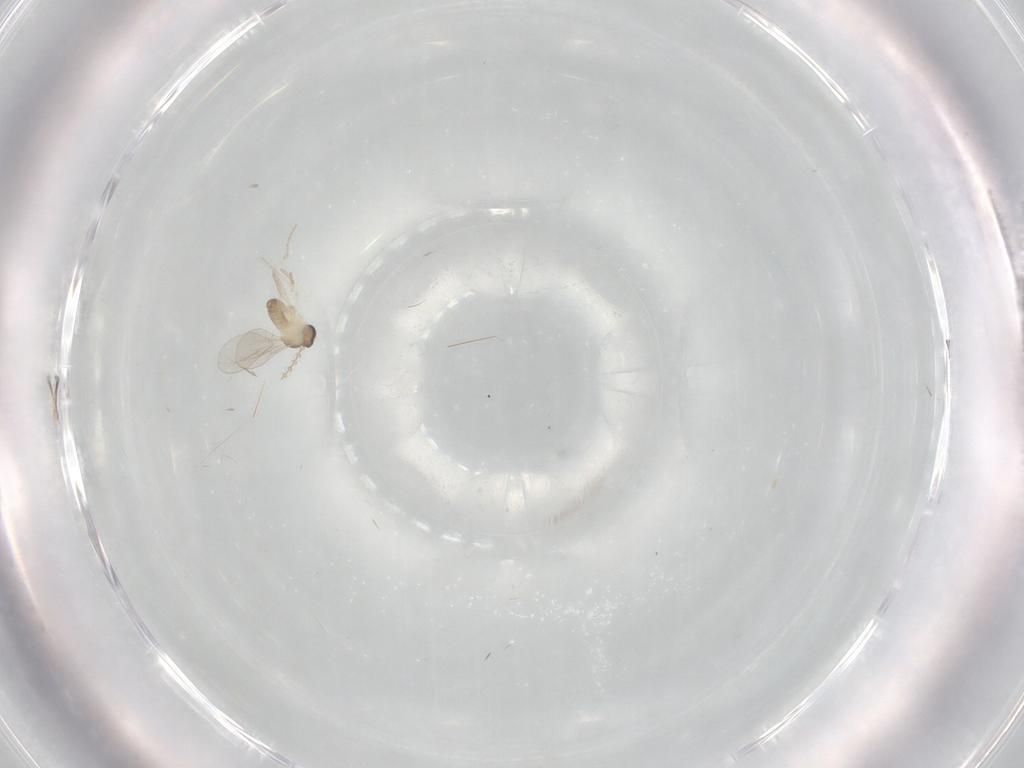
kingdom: Animalia
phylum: Arthropoda
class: Insecta
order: Diptera
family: Cecidomyiidae
